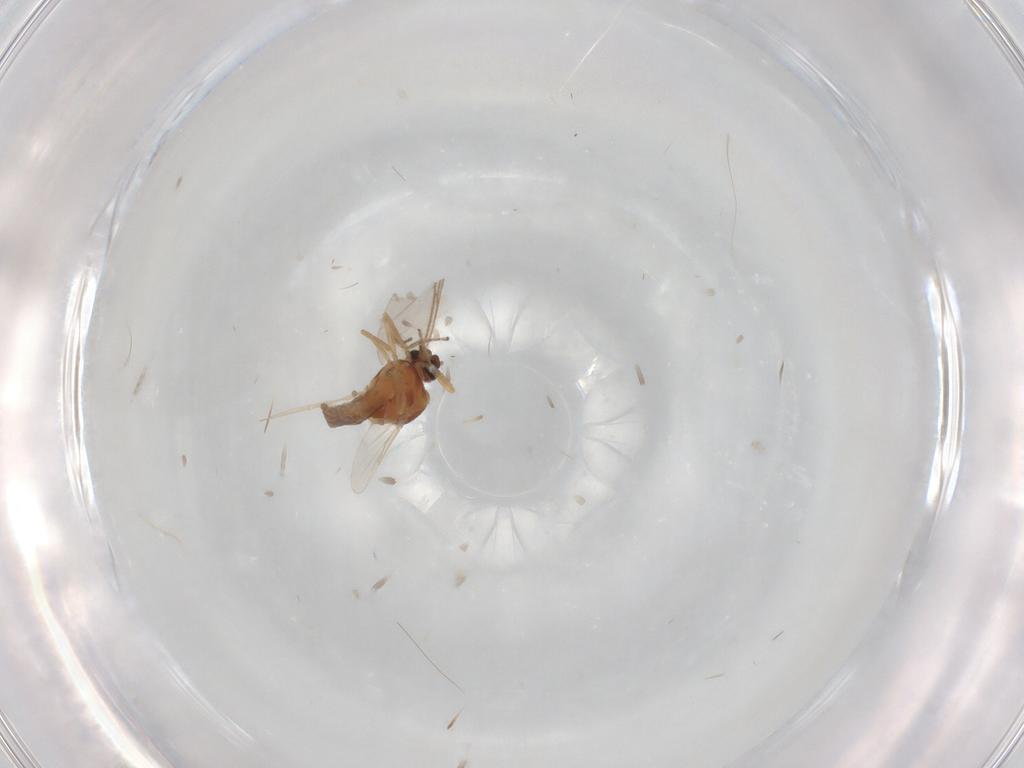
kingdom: Animalia
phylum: Arthropoda
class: Insecta
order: Diptera
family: Ceratopogonidae
